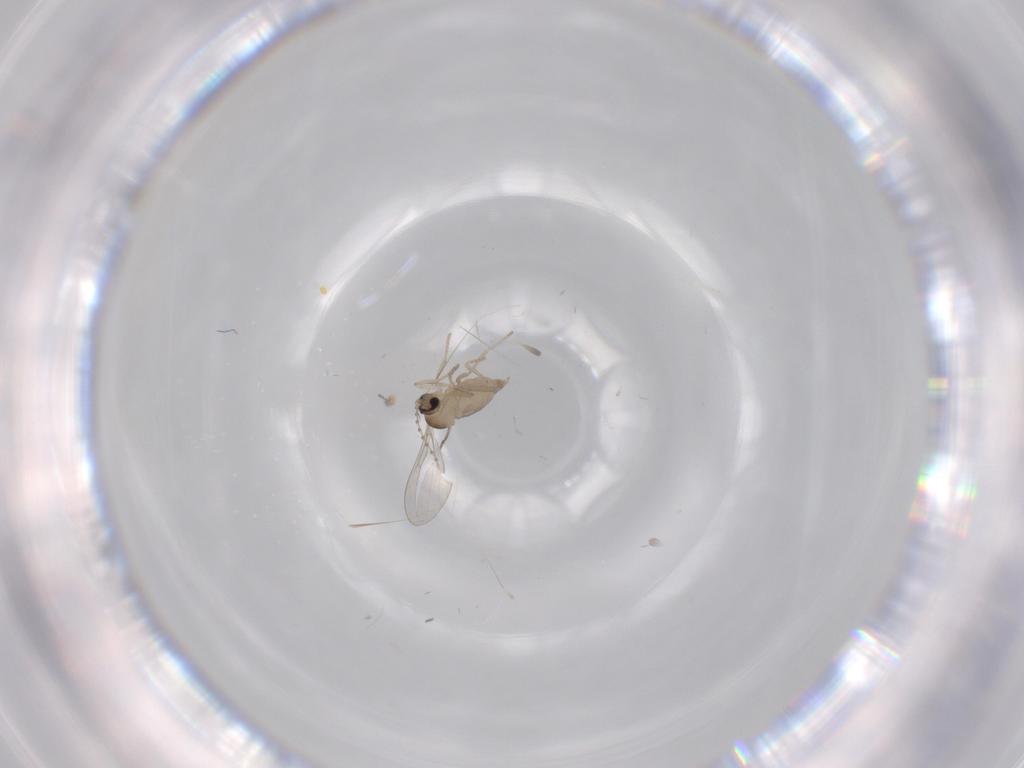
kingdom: Animalia
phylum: Arthropoda
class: Insecta
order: Diptera
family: Cecidomyiidae
